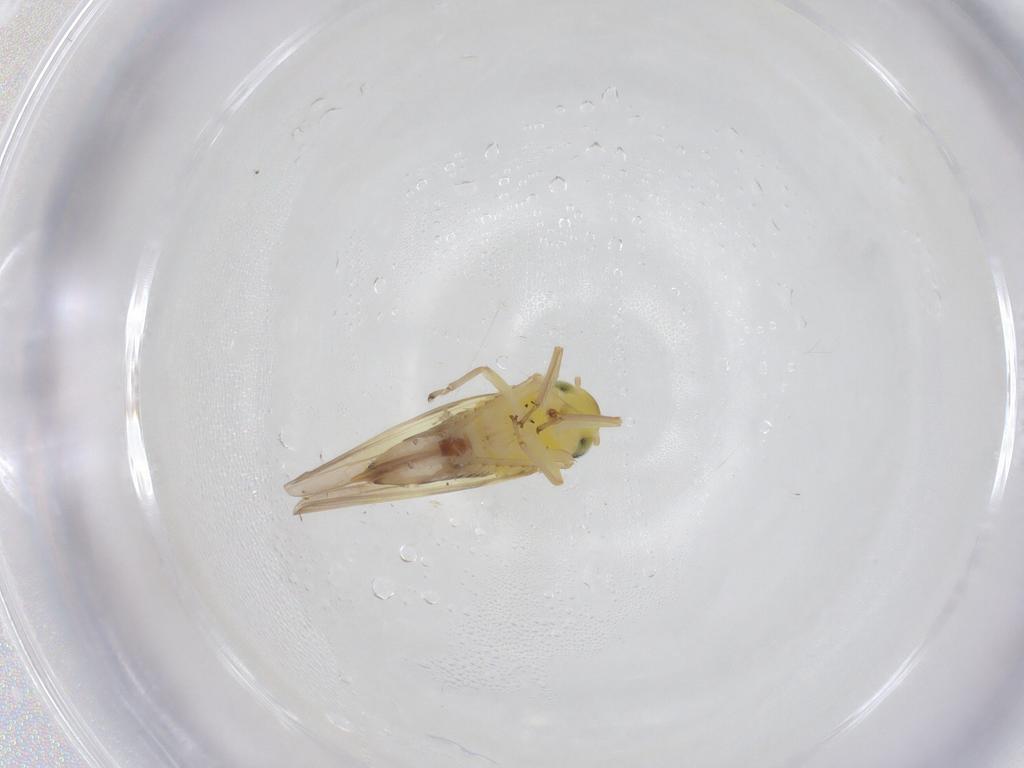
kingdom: Animalia
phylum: Arthropoda
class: Insecta
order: Hemiptera
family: Cicadellidae
